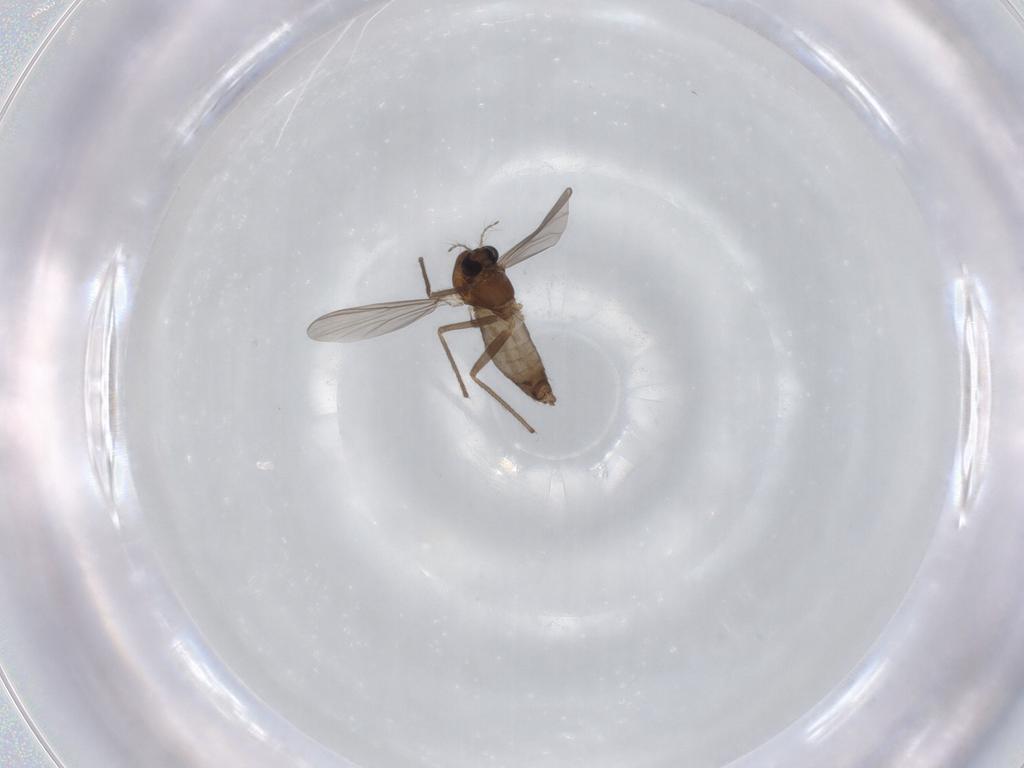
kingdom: Animalia
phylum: Arthropoda
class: Insecta
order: Diptera
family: Chironomidae
